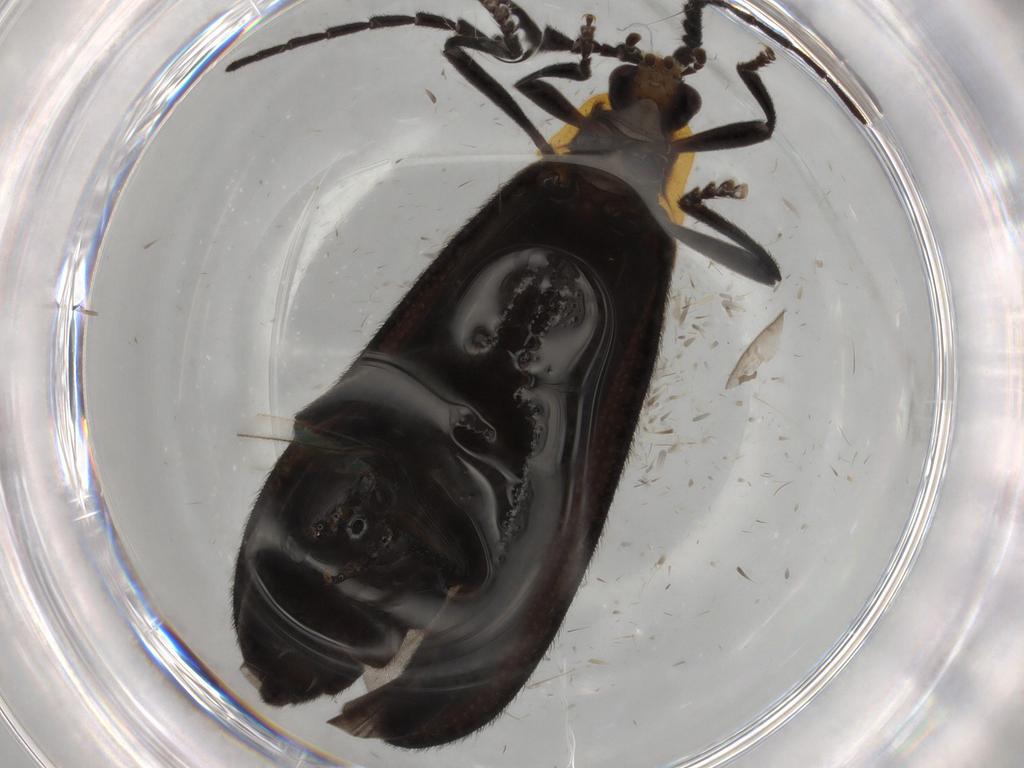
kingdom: Animalia
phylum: Arthropoda
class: Insecta
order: Coleoptera
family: Lycidae
